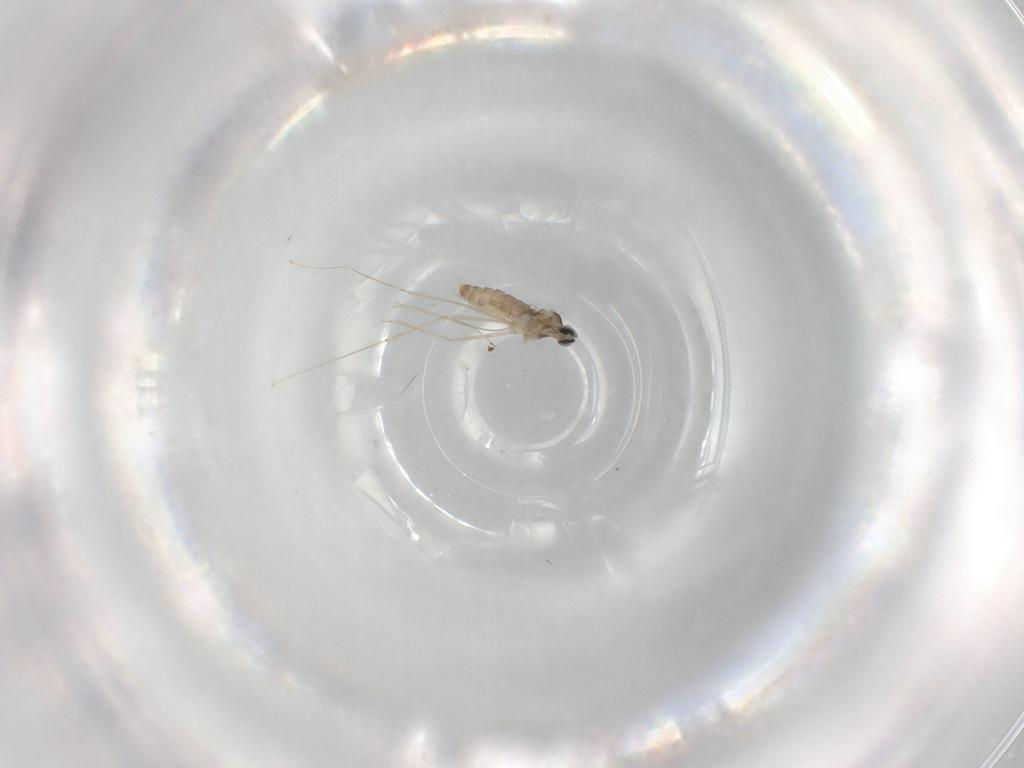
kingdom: Animalia
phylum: Arthropoda
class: Insecta
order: Diptera
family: Cecidomyiidae
